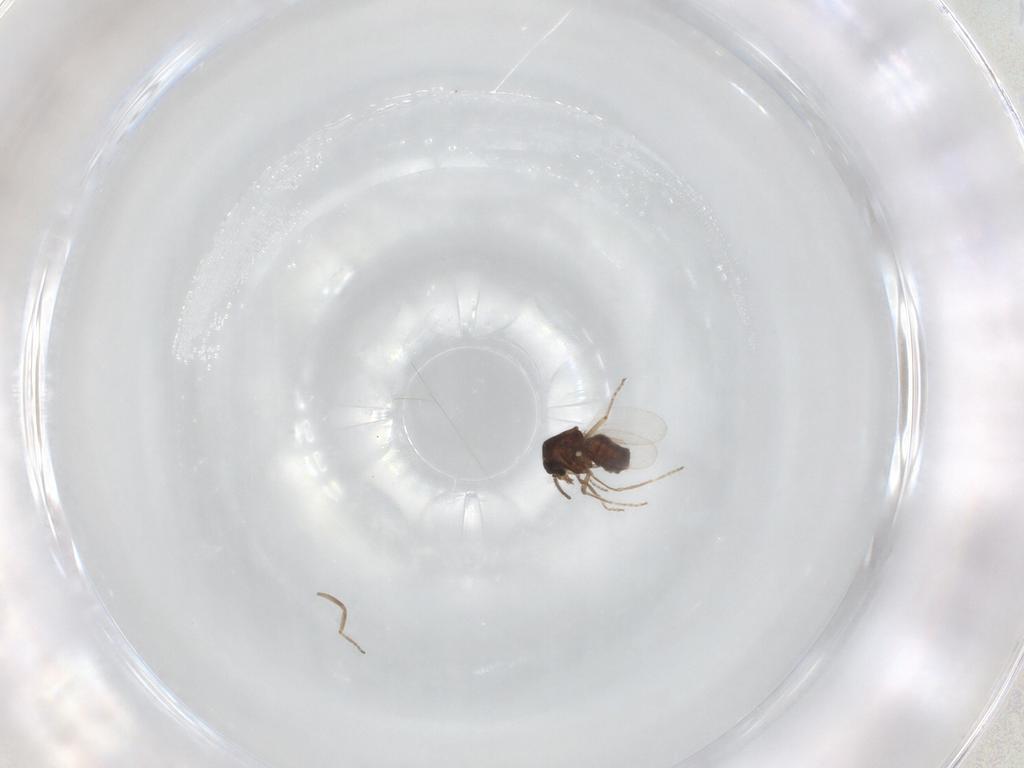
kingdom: Animalia
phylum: Arthropoda
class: Insecta
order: Diptera
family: Ceratopogonidae
